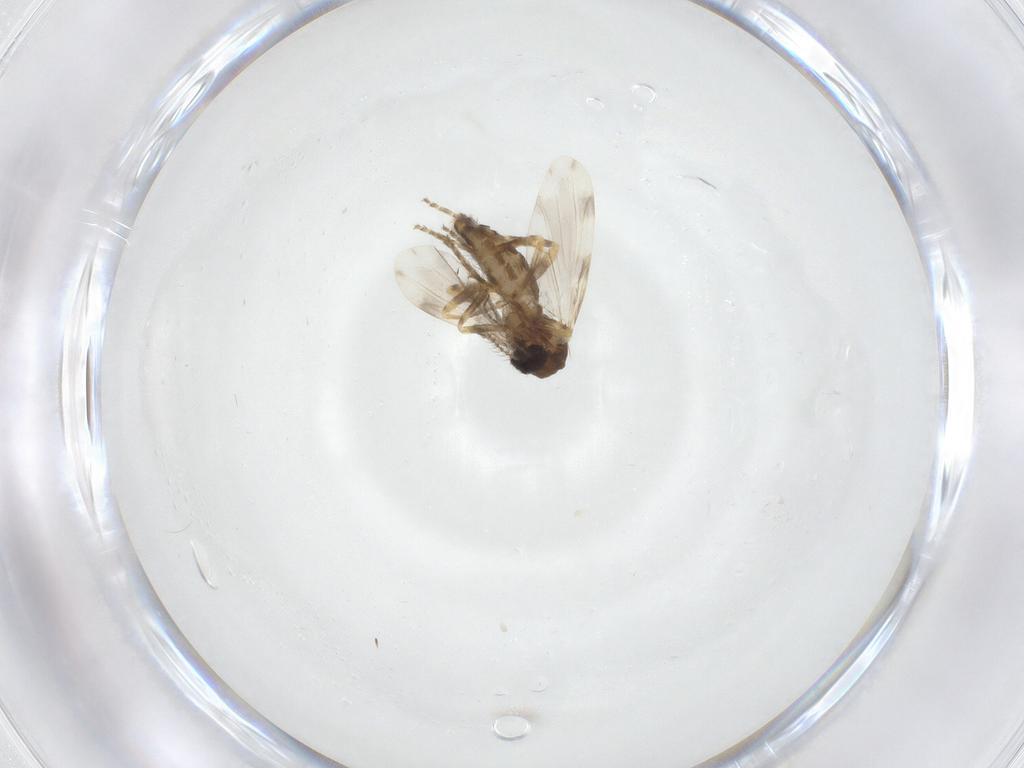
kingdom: Animalia
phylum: Arthropoda
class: Insecta
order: Diptera
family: Ceratopogonidae
